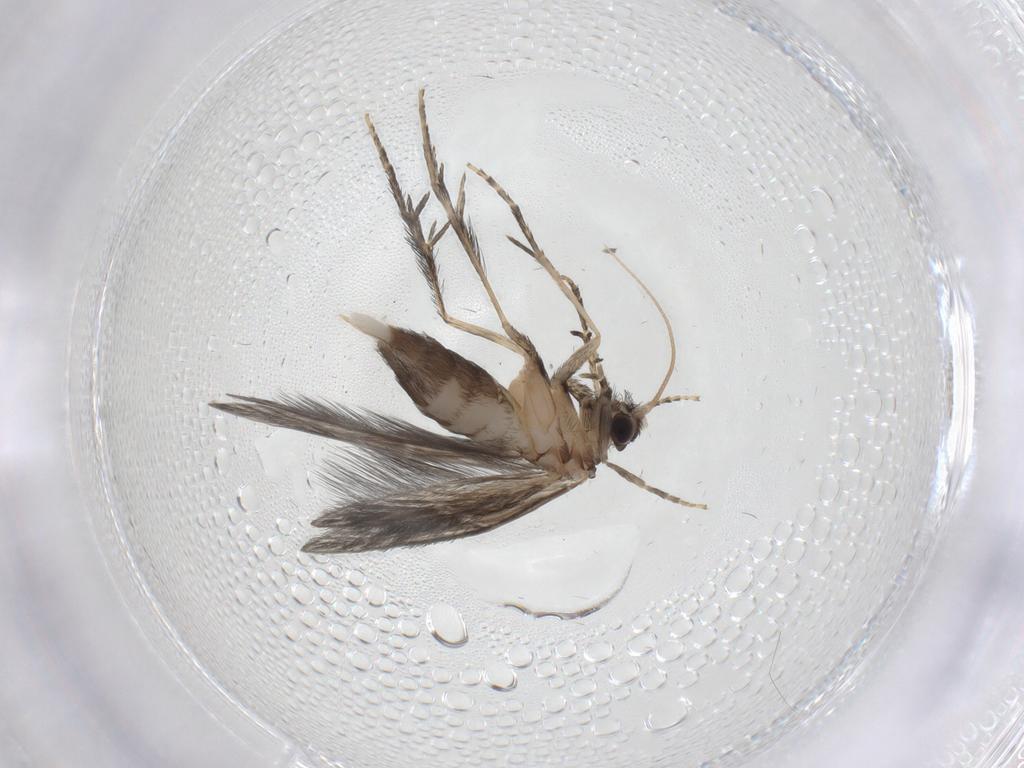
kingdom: Animalia
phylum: Arthropoda
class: Insecta
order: Trichoptera
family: Hydroptilidae
